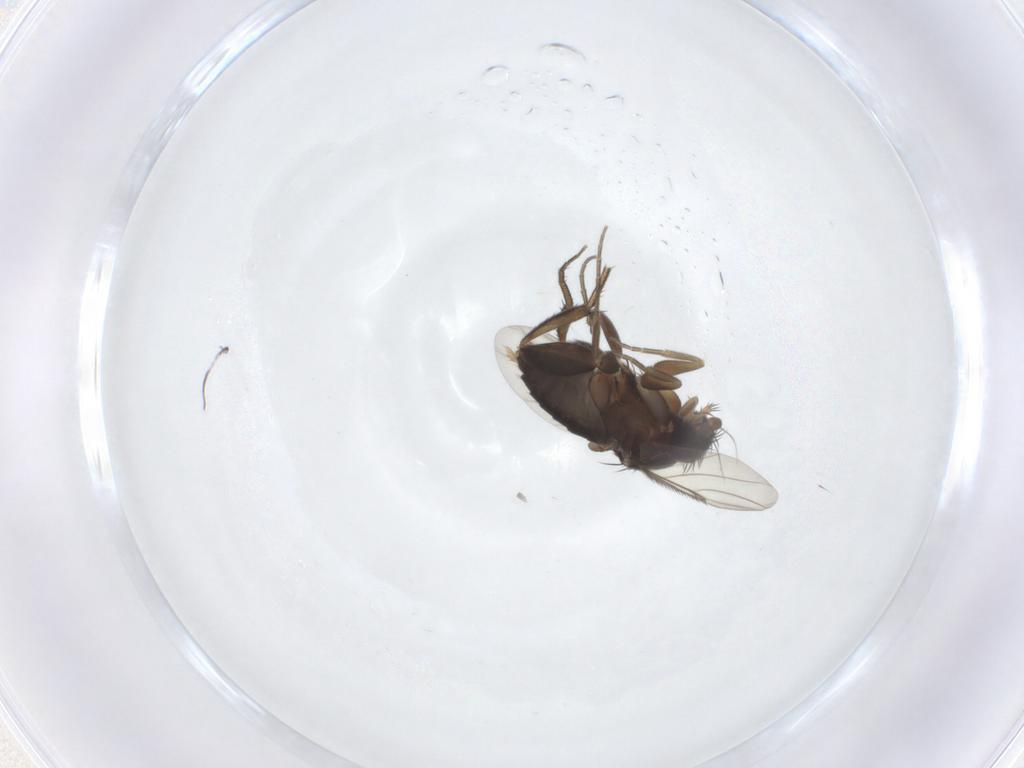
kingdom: Animalia
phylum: Arthropoda
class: Insecta
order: Diptera
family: Phoridae
